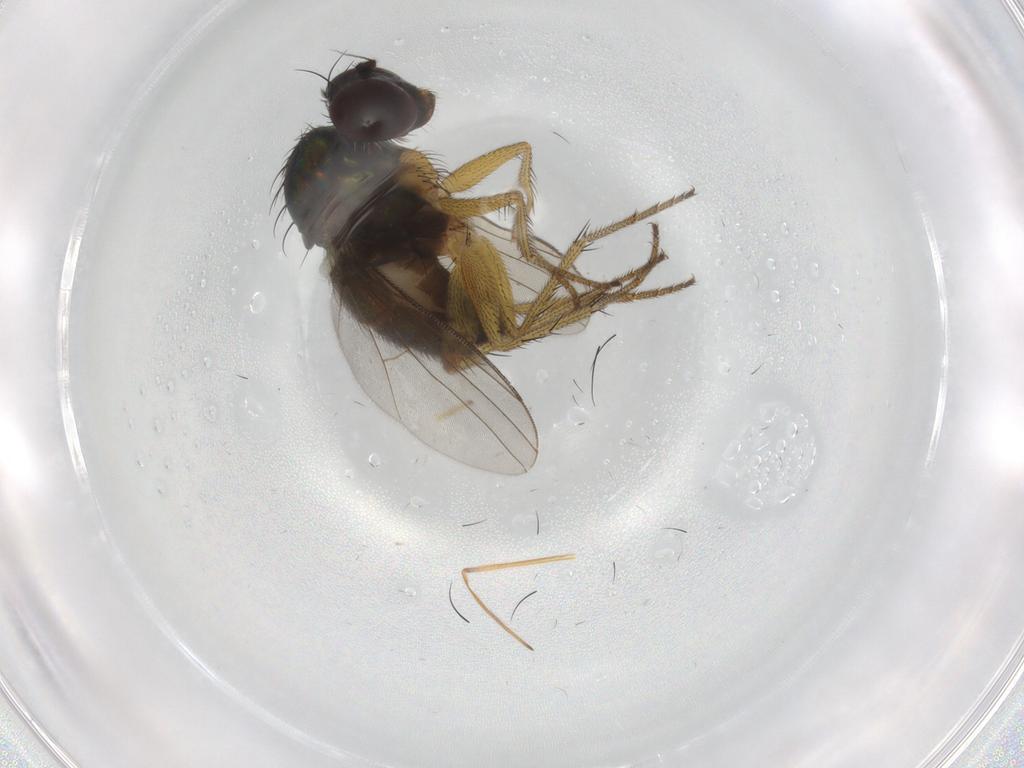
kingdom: Animalia
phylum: Arthropoda
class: Insecta
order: Diptera
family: Dolichopodidae
